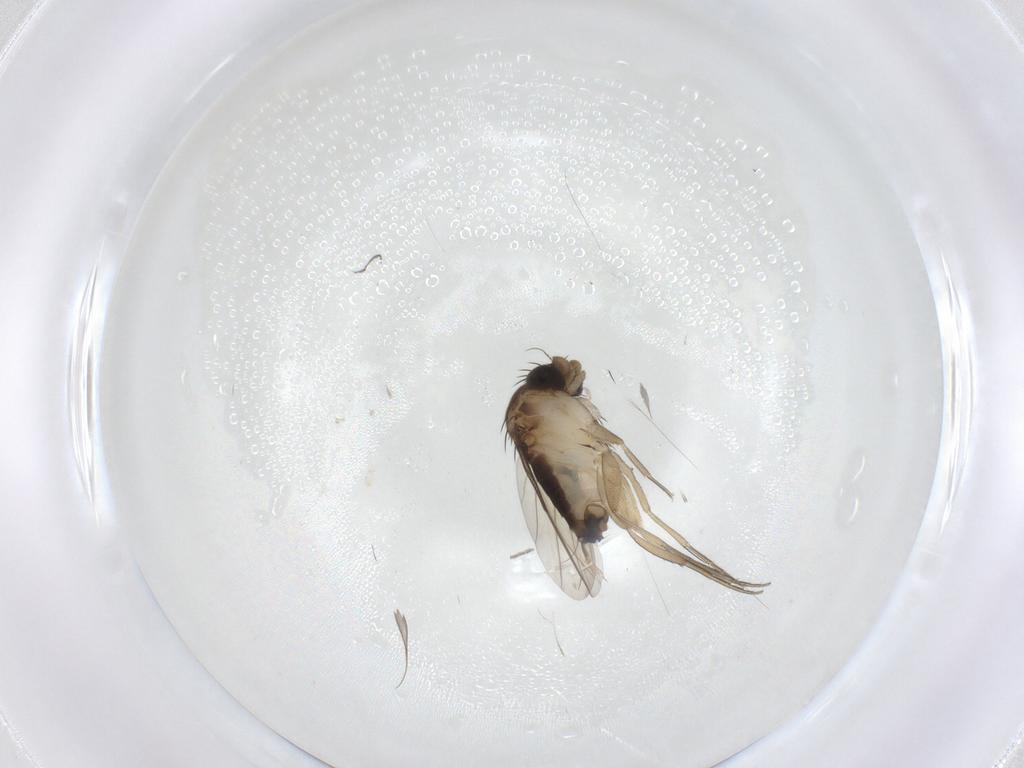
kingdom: Animalia
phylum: Arthropoda
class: Insecta
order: Diptera
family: Phoridae
